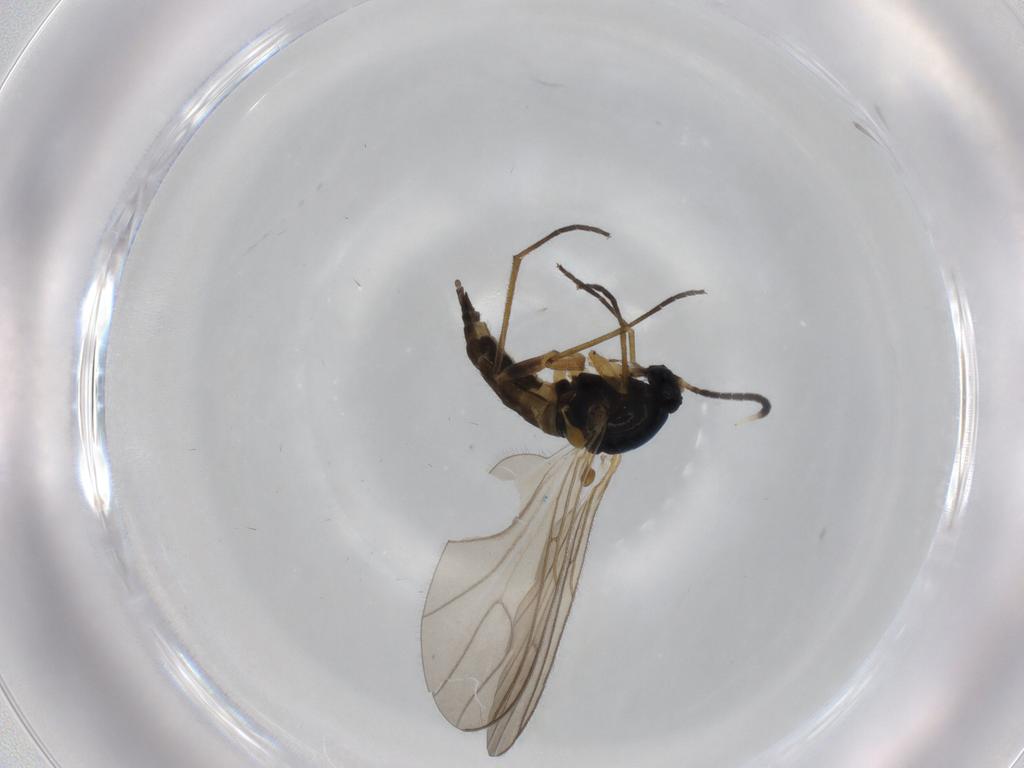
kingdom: Animalia
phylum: Arthropoda
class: Insecta
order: Diptera
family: Sciaridae
